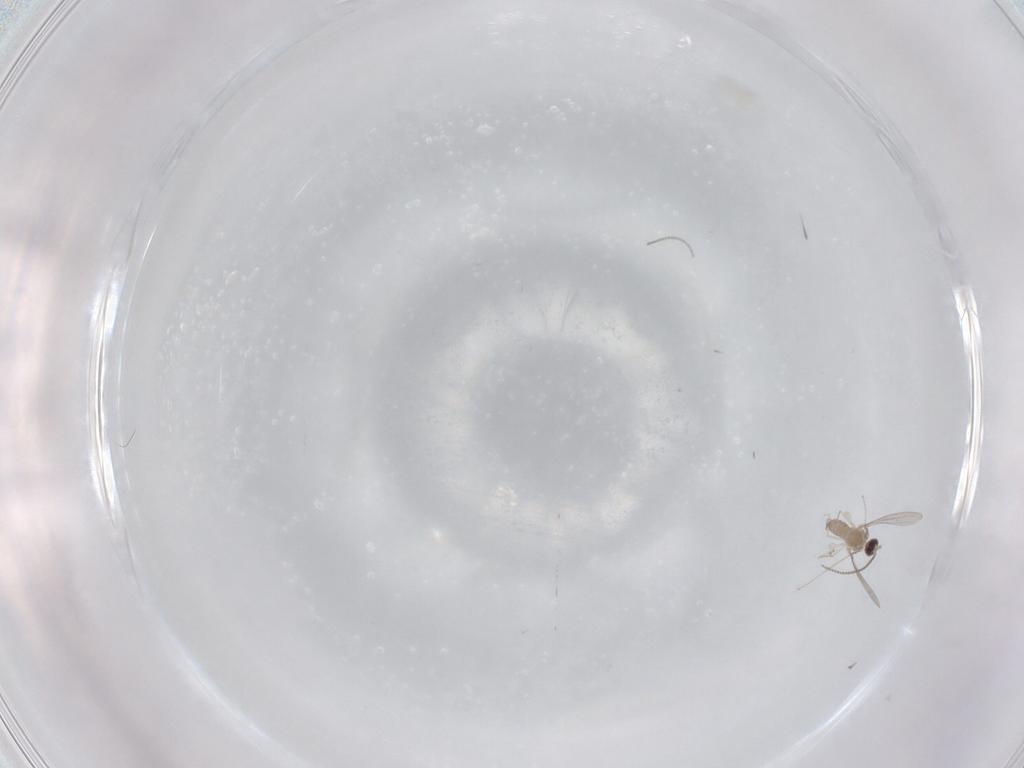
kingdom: Animalia
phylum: Arthropoda
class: Insecta
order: Diptera
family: Cecidomyiidae
